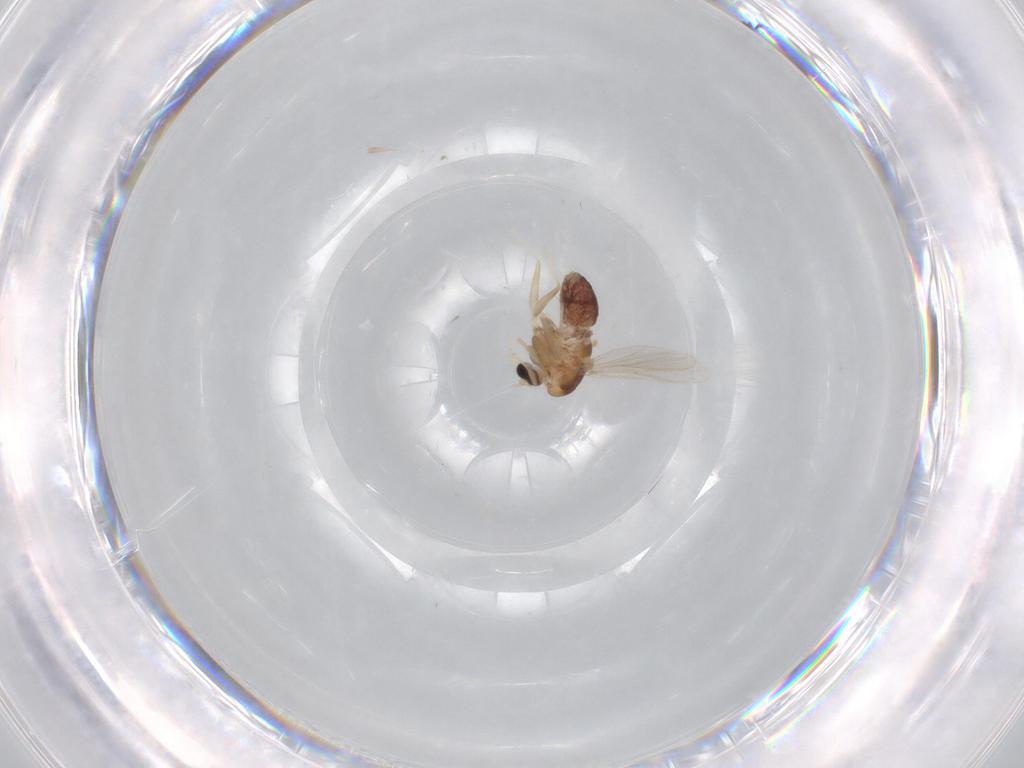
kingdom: Animalia
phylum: Arthropoda
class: Insecta
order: Diptera
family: Chironomidae
